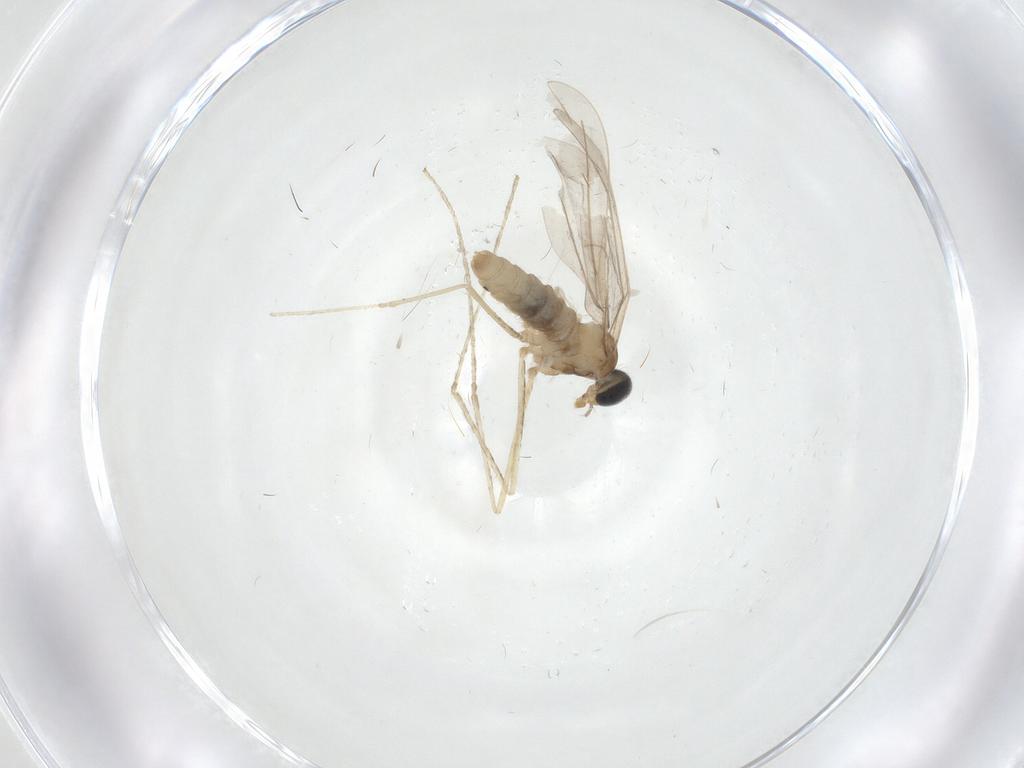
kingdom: Animalia
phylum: Arthropoda
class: Insecta
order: Diptera
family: Cecidomyiidae
